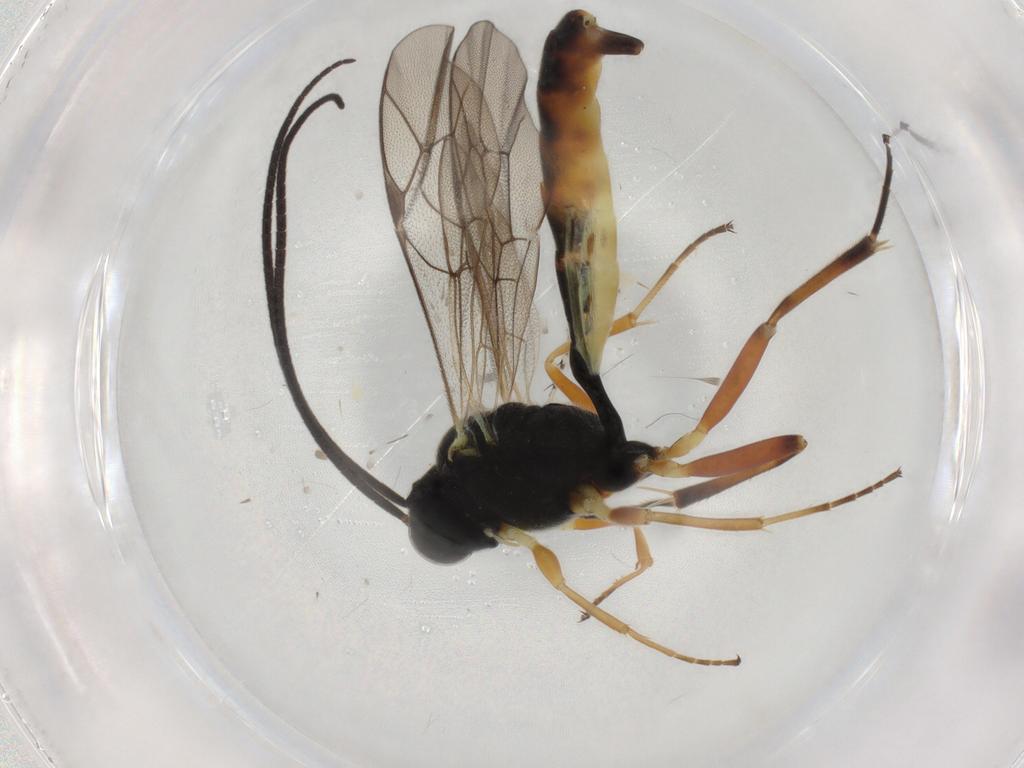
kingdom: Animalia
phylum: Arthropoda
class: Insecta
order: Hymenoptera
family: Ichneumonidae
